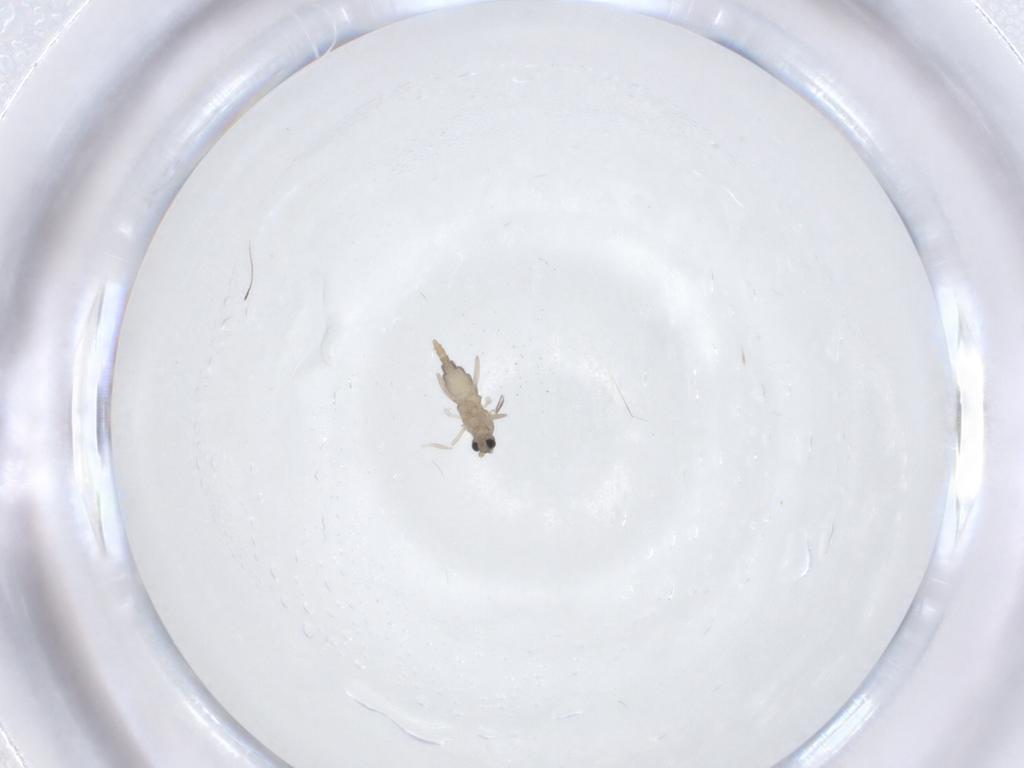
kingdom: Animalia
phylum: Arthropoda
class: Insecta
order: Diptera
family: Cecidomyiidae
